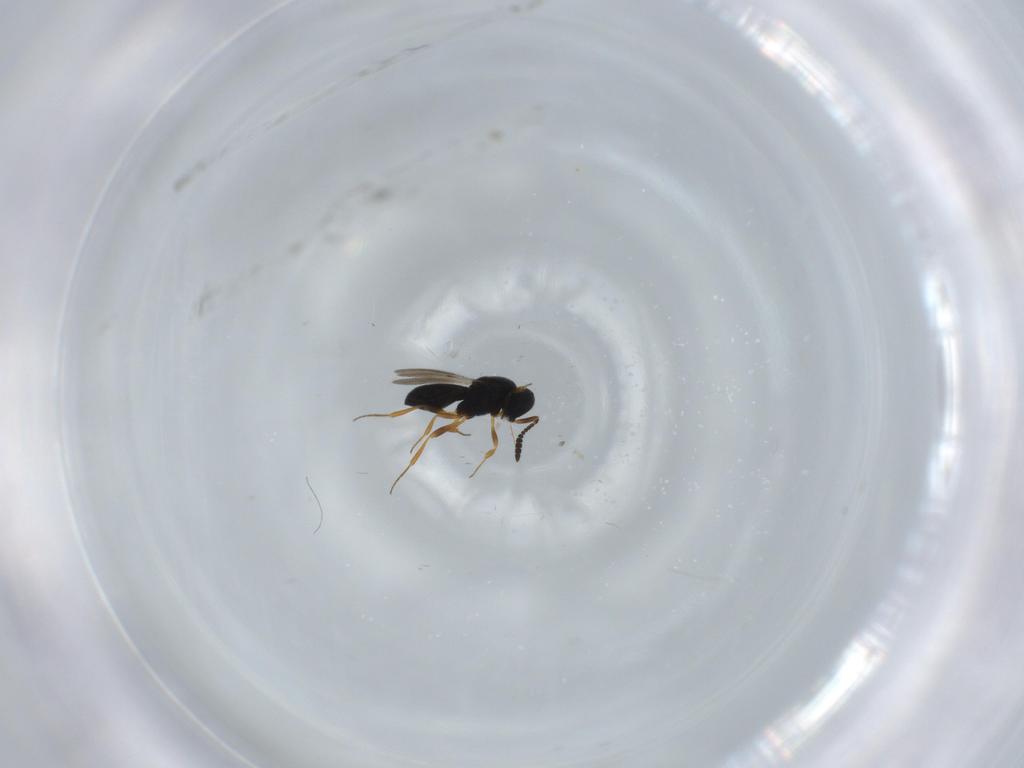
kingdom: Animalia
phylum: Arthropoda
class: Insecta
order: Hymenoptera
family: Scelionidae
